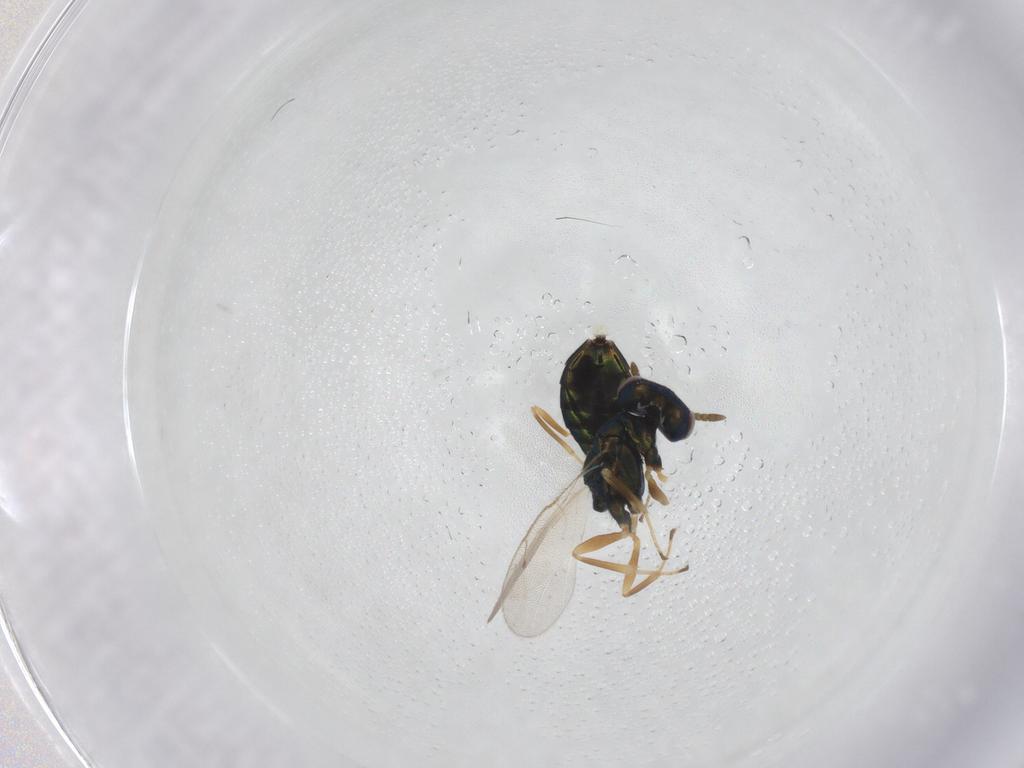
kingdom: Animalia
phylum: Arthropoda
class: Insecta
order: Hymenoptera
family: Pteromalidae
